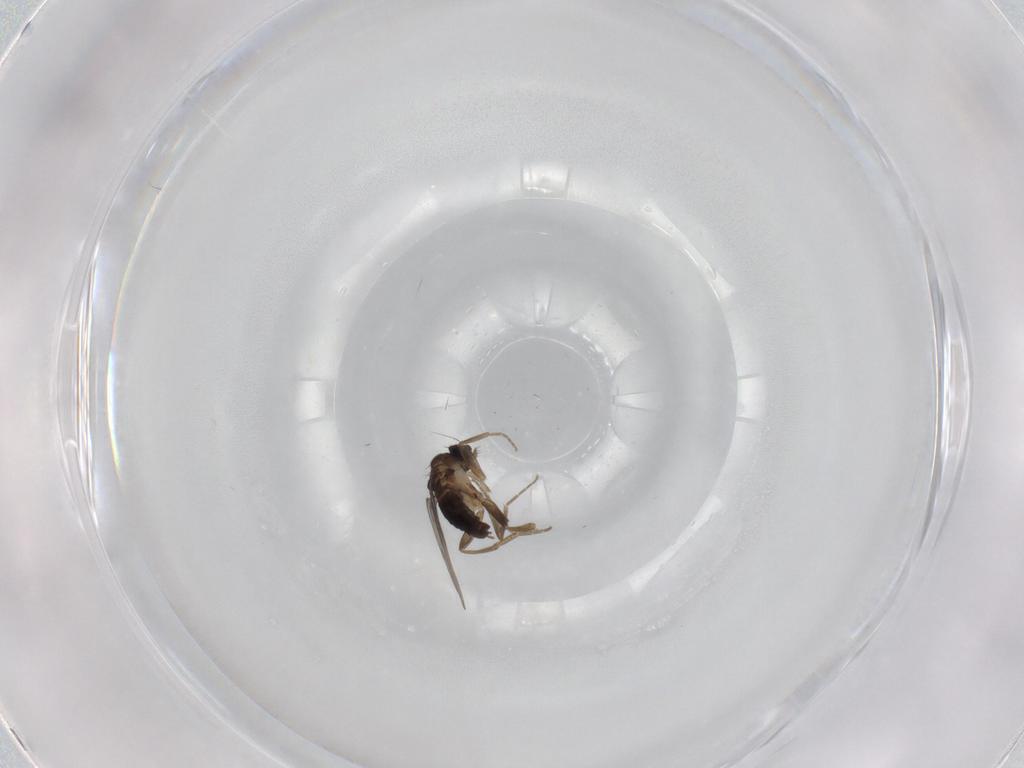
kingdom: Animalia
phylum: Arthropoda
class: Insecta
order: Diptera
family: Phoridae
